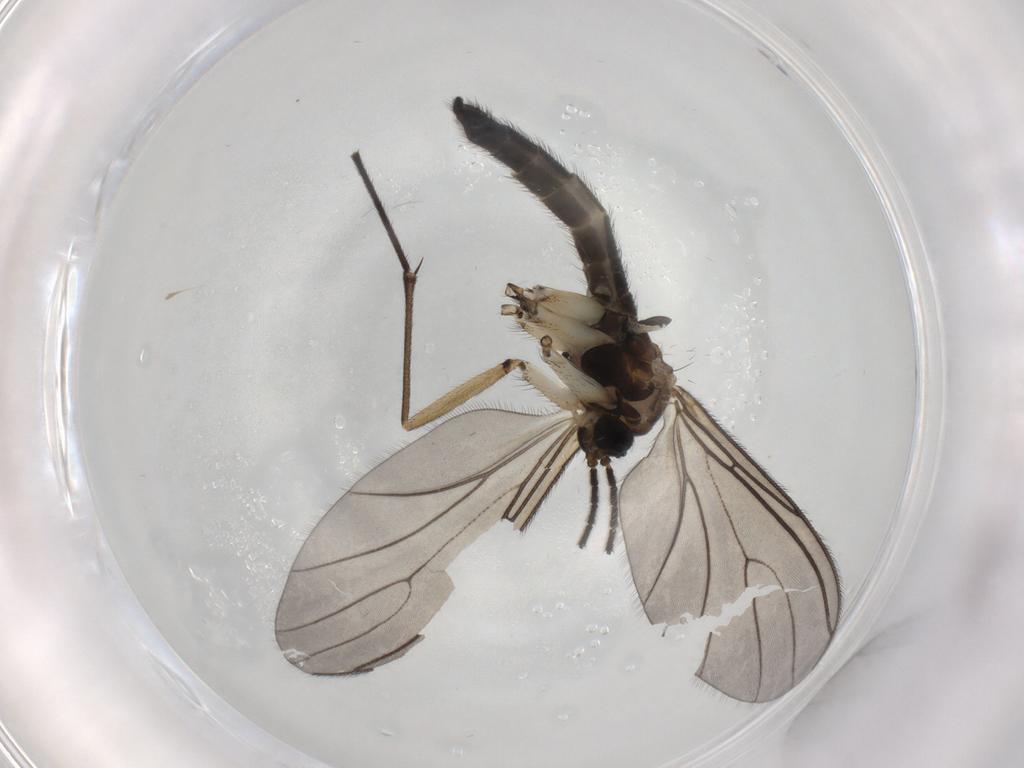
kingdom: Animalia
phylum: Arthropoda
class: Insecta
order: Diptera
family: Sciaridae
